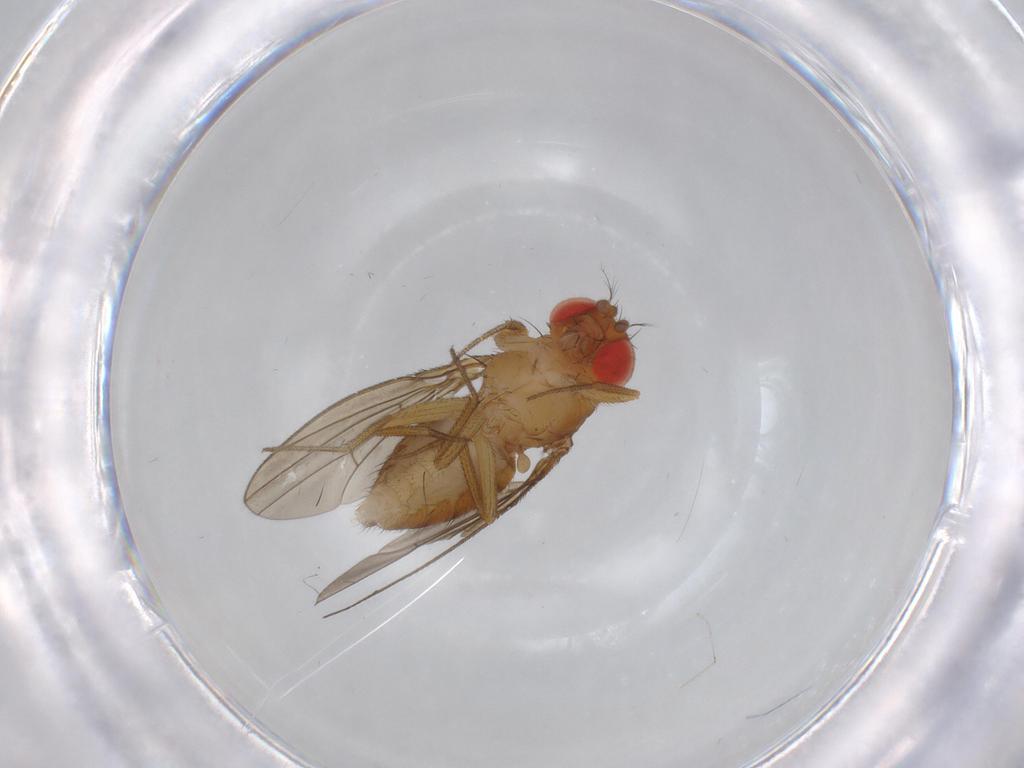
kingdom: Animalia
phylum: Arthropoda
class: Insecta
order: Diptera
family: Drosophilidae
